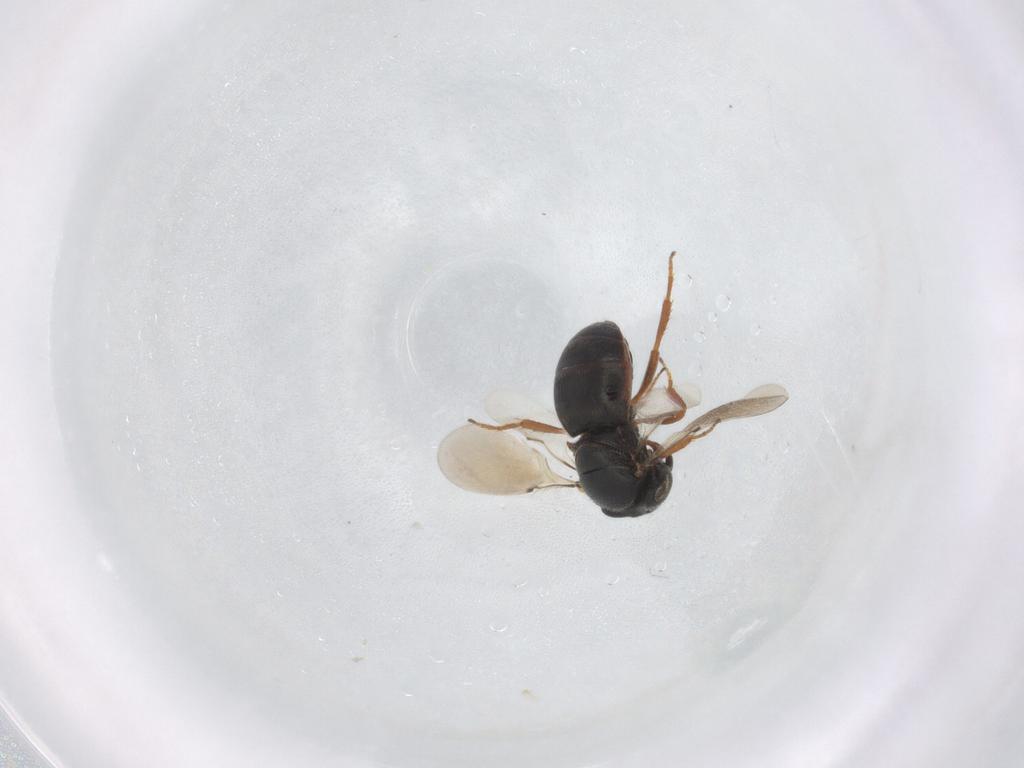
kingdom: Animalia
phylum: Arthropoda
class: Insecta
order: Hymenoptera
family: Scelionidae
